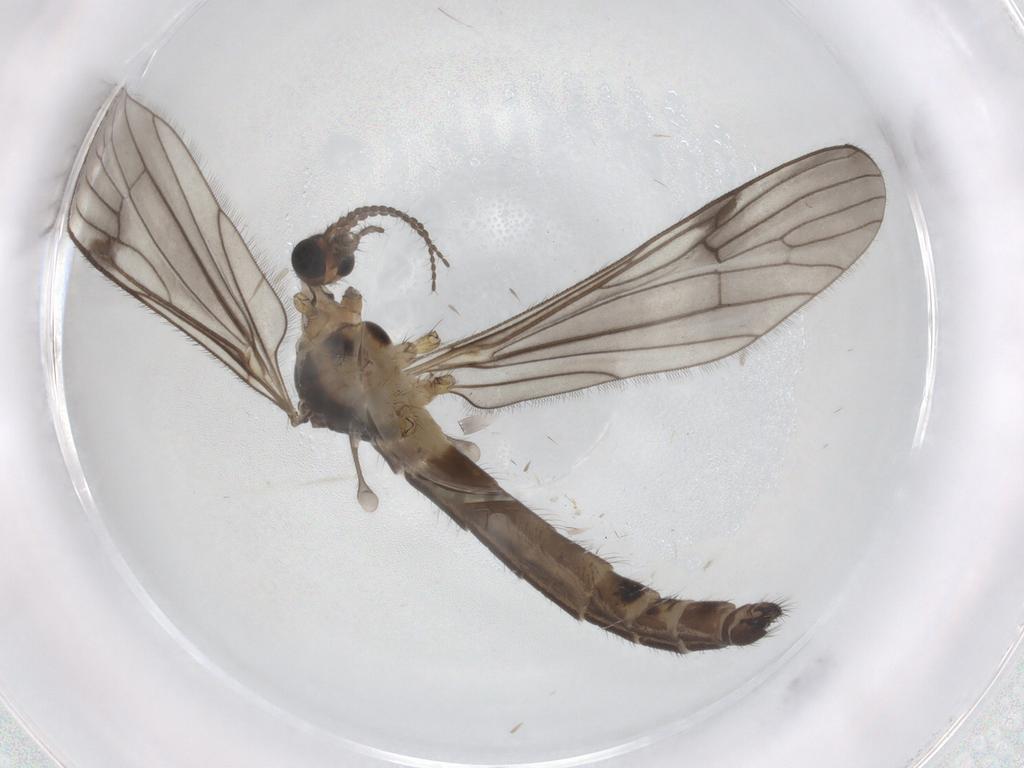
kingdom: Animalia
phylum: Arthropoda
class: Insecta
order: Diptera
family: Limoniidae
